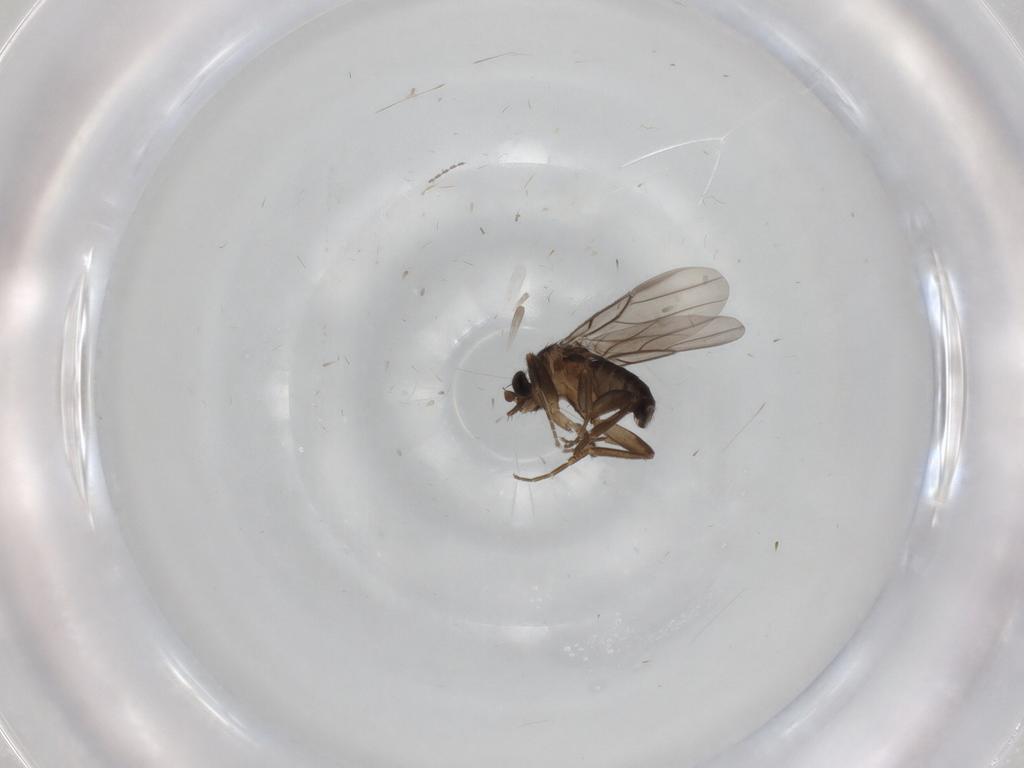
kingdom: Animalia
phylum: Arthropoda
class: Insecta
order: Diptera
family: Cecidomyiidae
